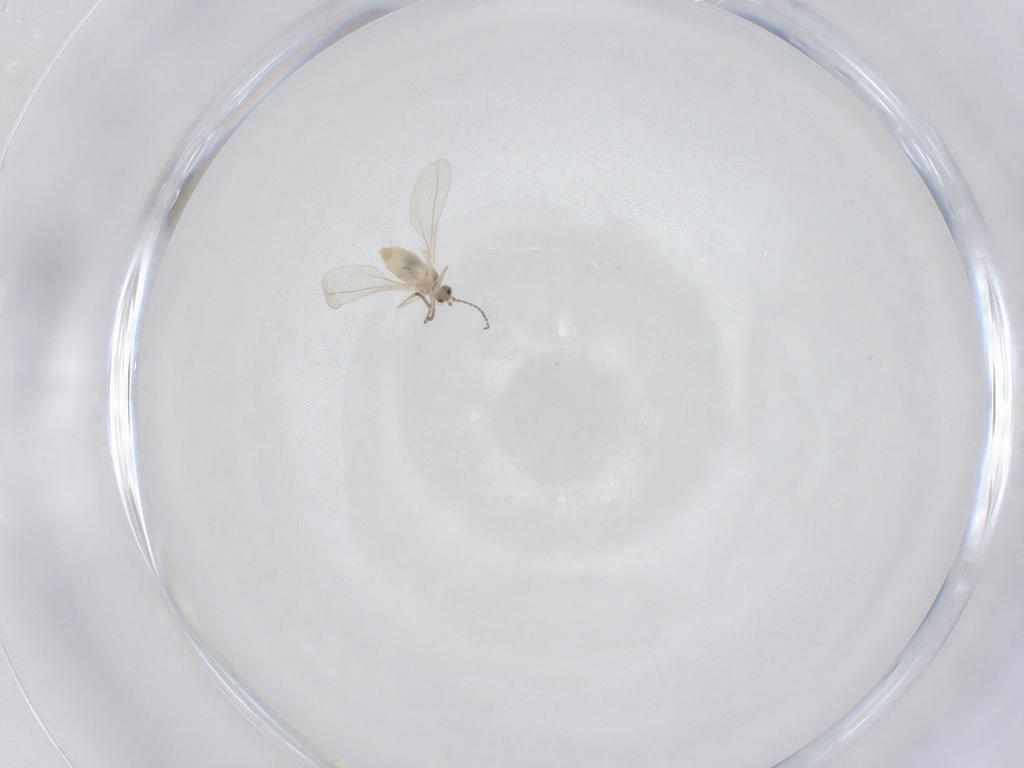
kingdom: Animalia
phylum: Arthropoda
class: Insecta
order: Diptera
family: Cecidomyiidae
